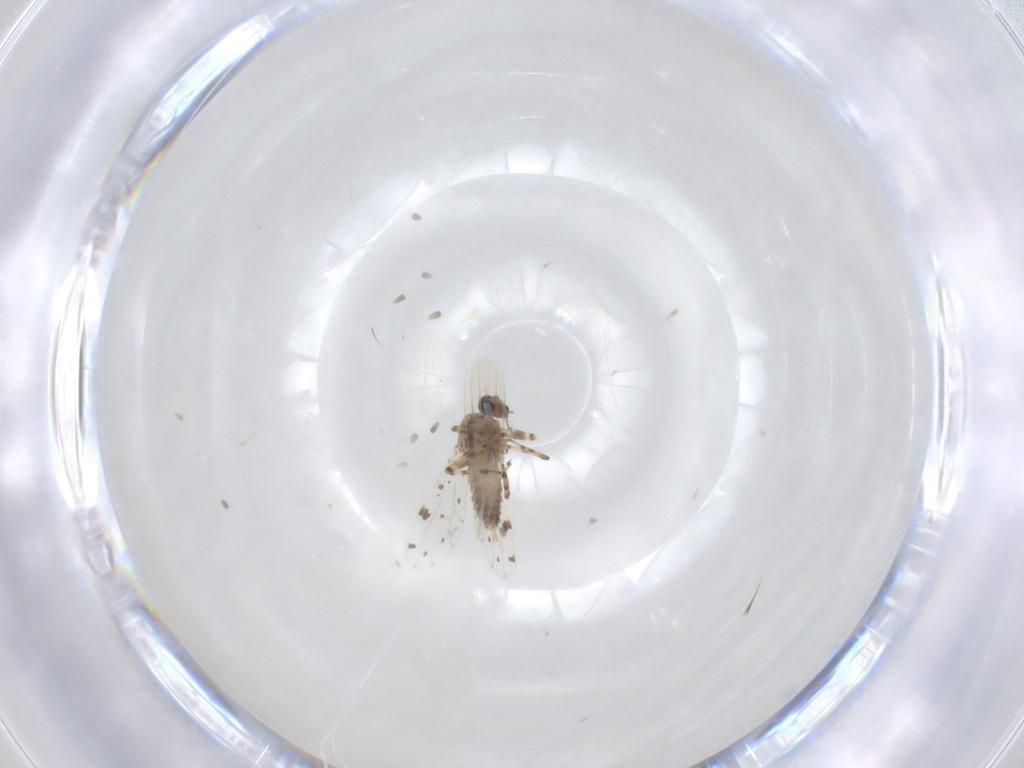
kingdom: Animalia
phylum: Arthropoda
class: Insecta
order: Diptera
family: Ceratopogonidae
